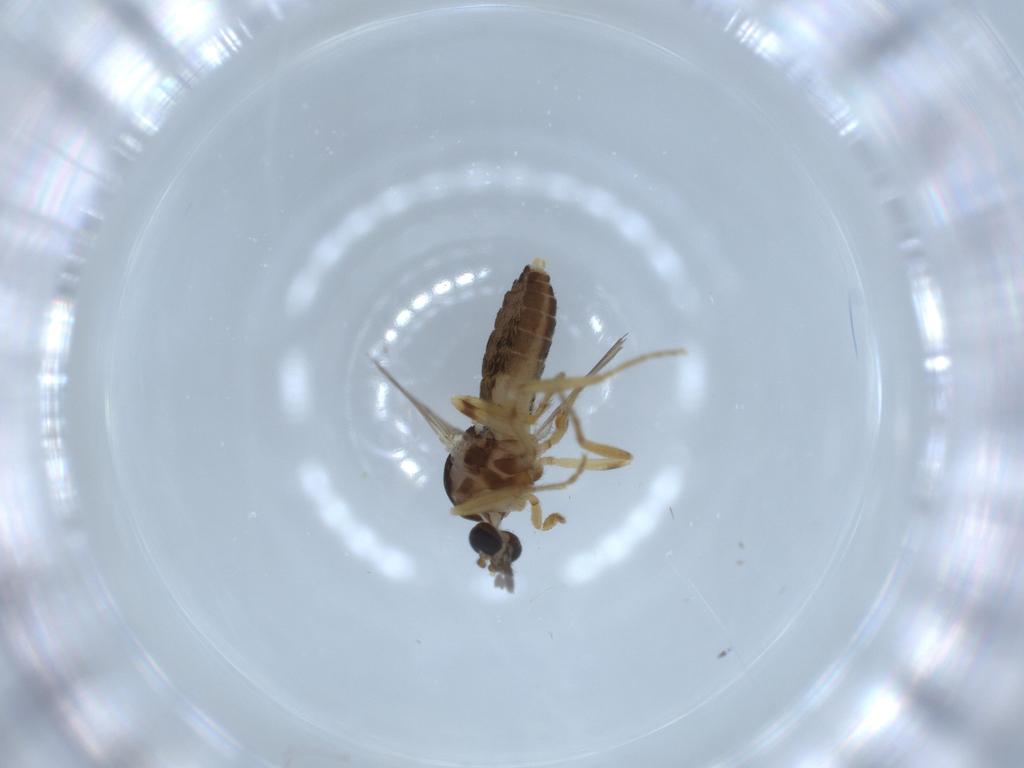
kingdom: Animalia
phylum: Arthropoda
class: Insecta
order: Diptera
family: Ceratopogonidae
